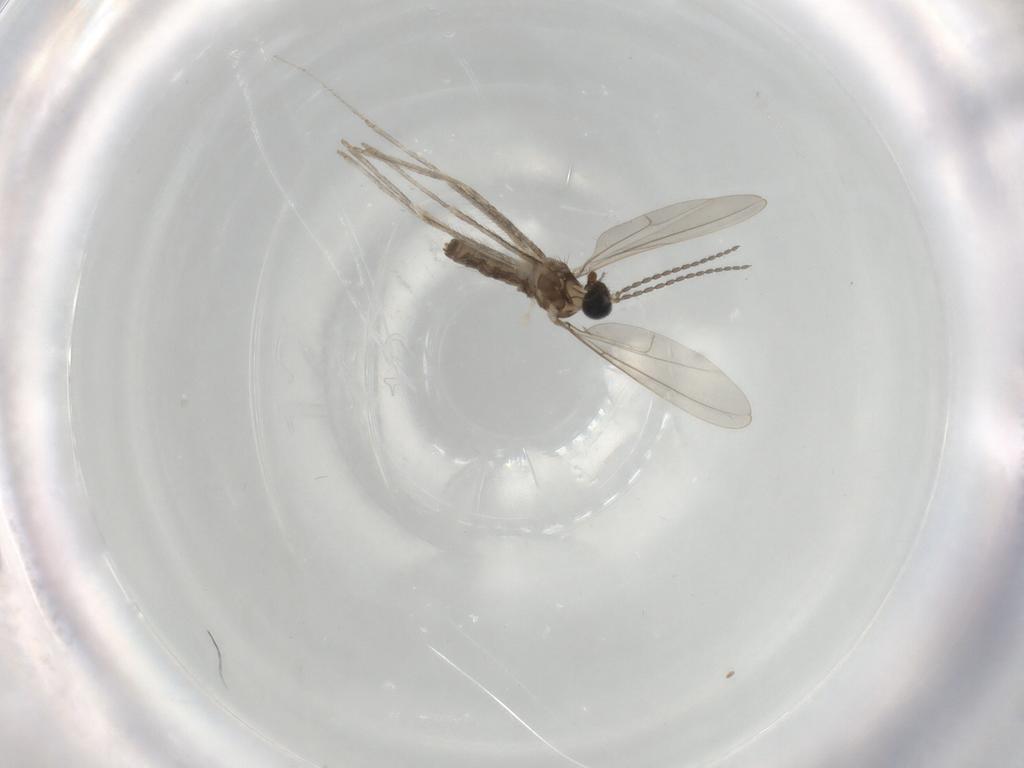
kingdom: Animalia
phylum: Arthropoda
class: Insecta
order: Diptera
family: Cecidomyiidae
